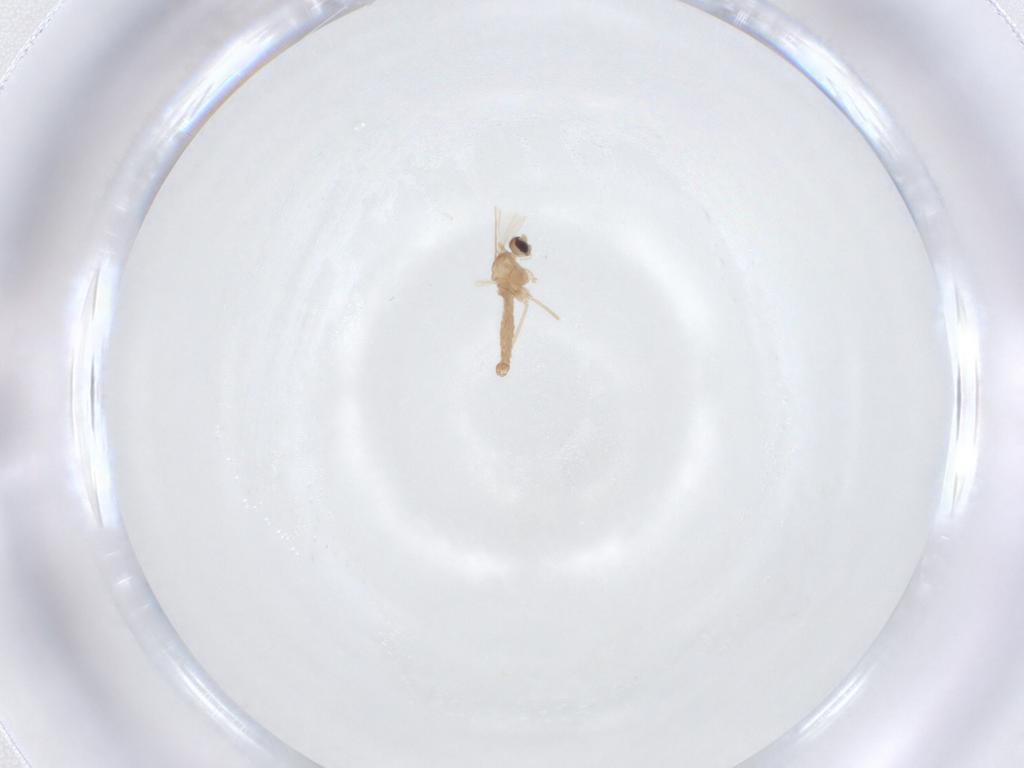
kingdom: Animalia
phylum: Arthropoda
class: Insecta
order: Diptera
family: Cecidomyiidae
